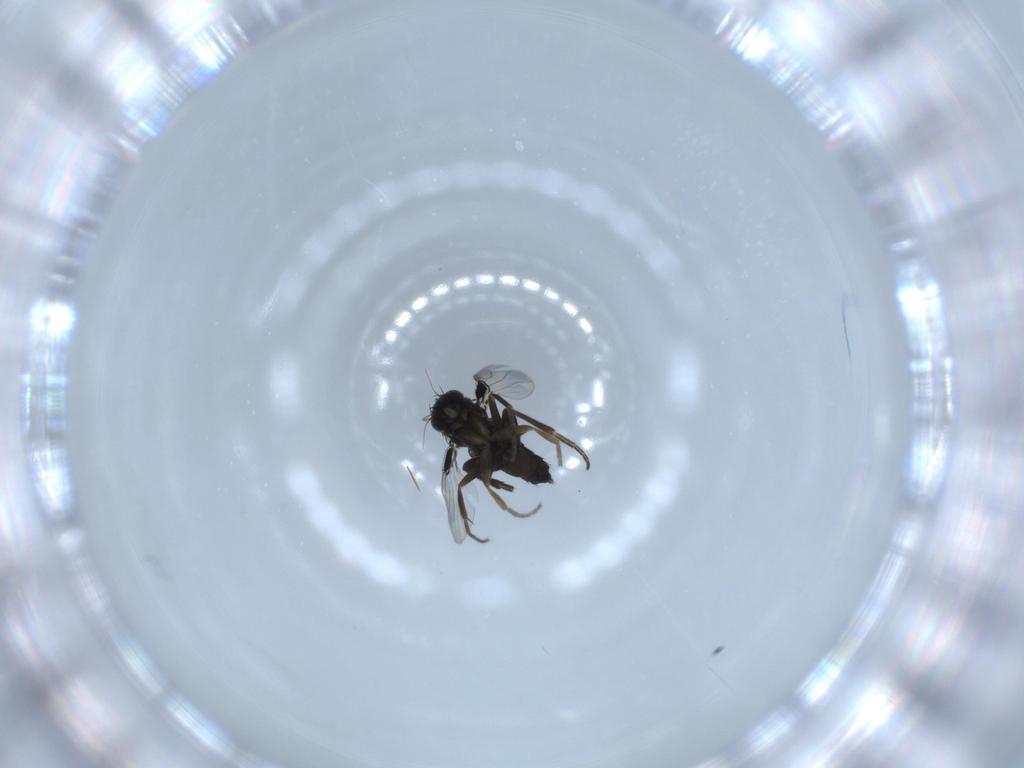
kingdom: Animalia
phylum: Arthropoda
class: Insecta
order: Diptera
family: Phoridae
